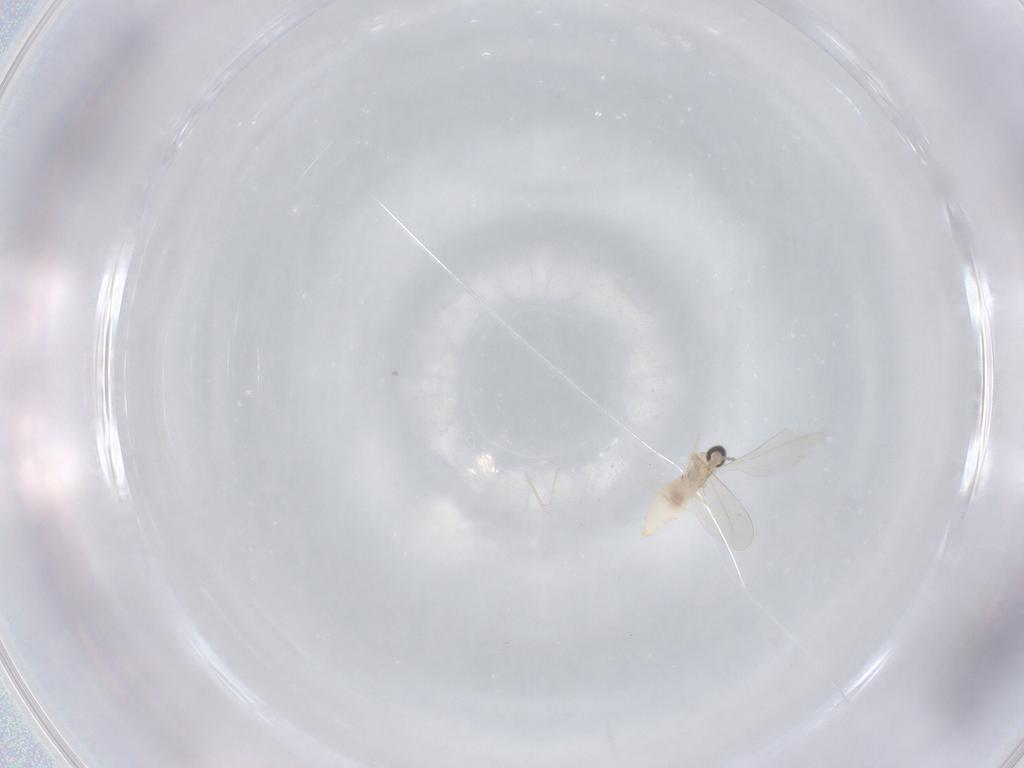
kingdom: Animalia
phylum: Arthropoda
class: Insecta
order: Diptera
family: Cecidomyiidae
